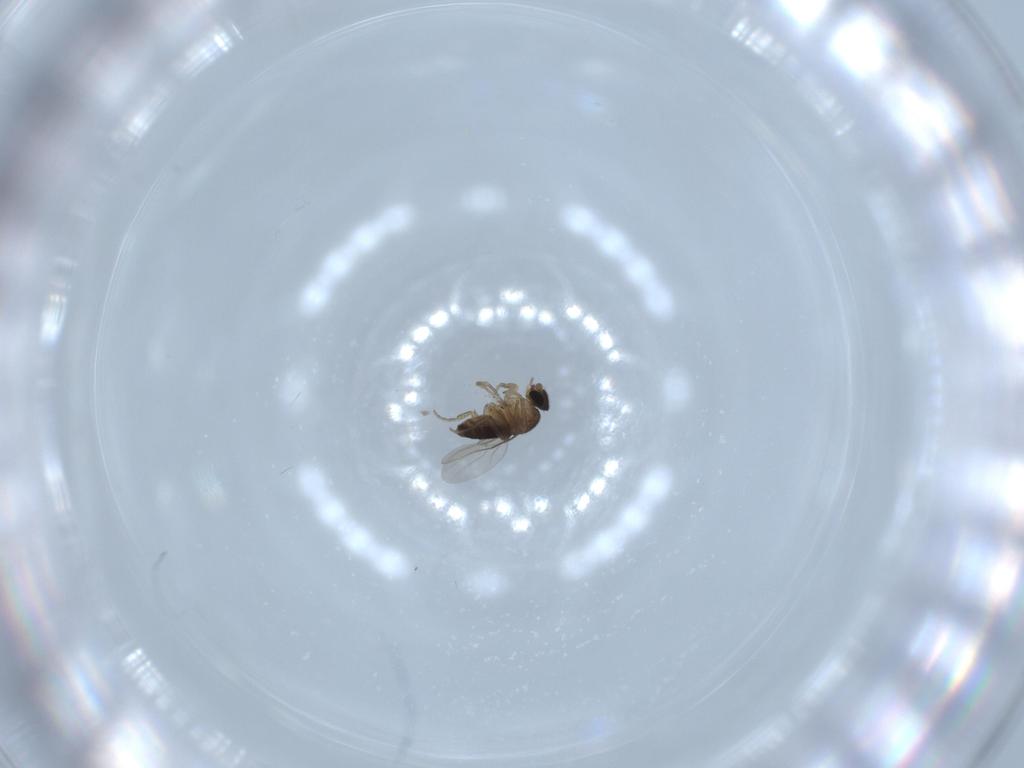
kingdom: Animalia
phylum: Arthropoda
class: Insecta
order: Diptera
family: Phoridae
